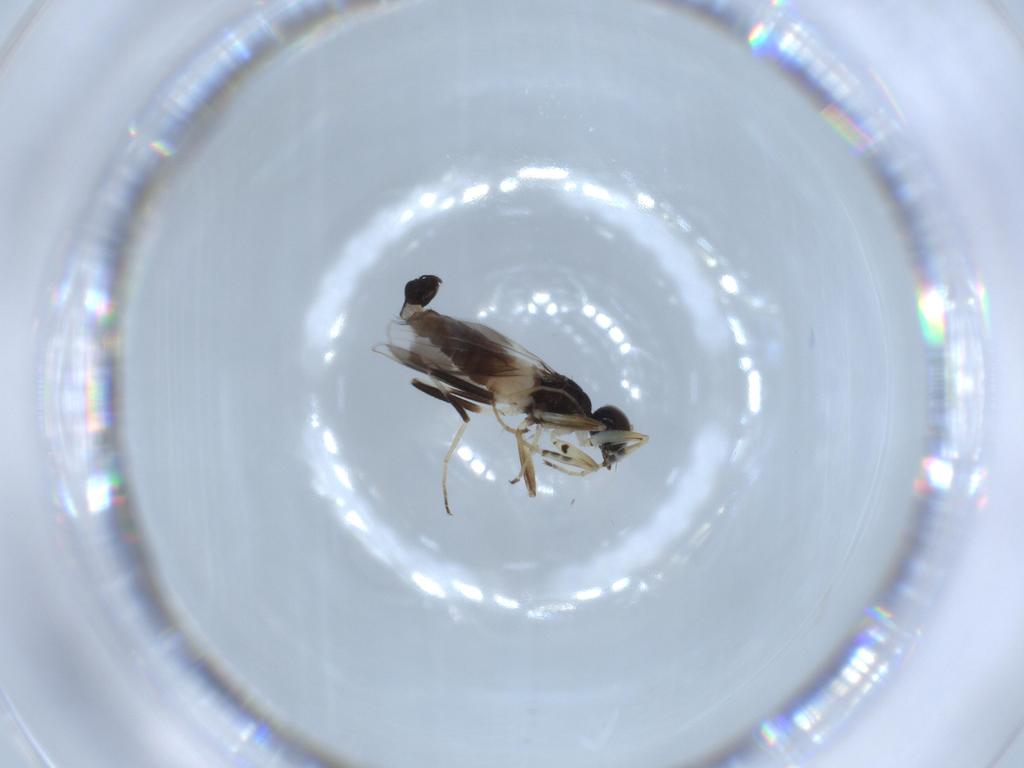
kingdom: Animalia
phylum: Arthropoda
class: Insecta
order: Diptera
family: Hybotidae
